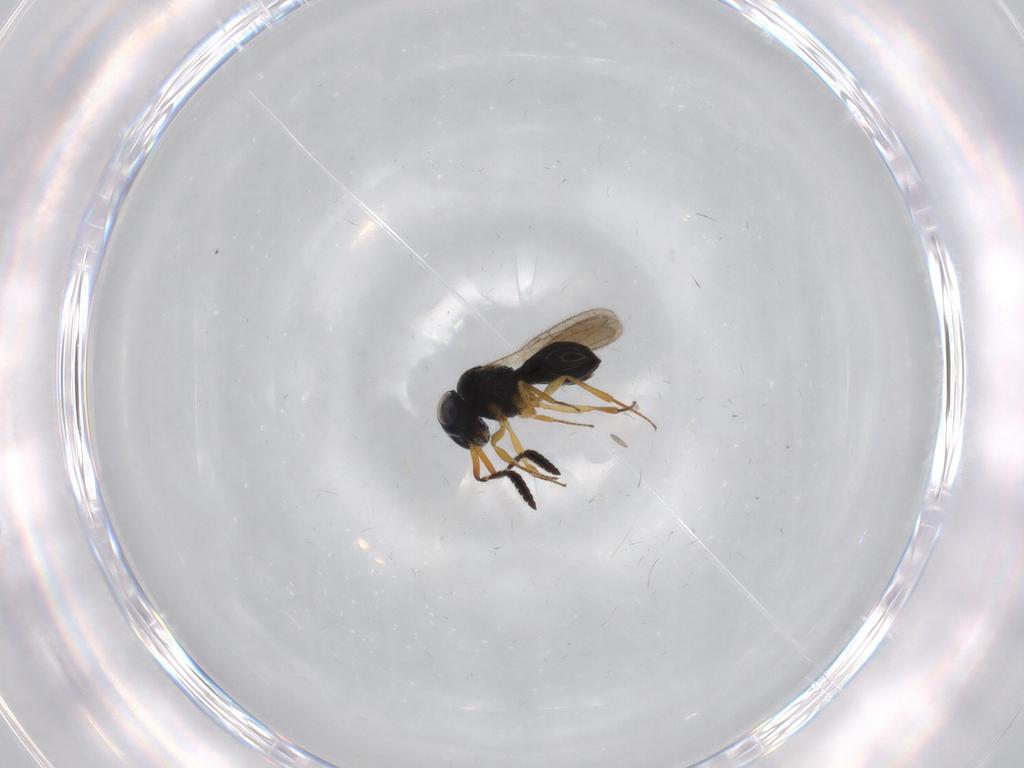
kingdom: Animalia
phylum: Arthropoda
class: Insecta
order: Hymenoptera
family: Scelionidae
